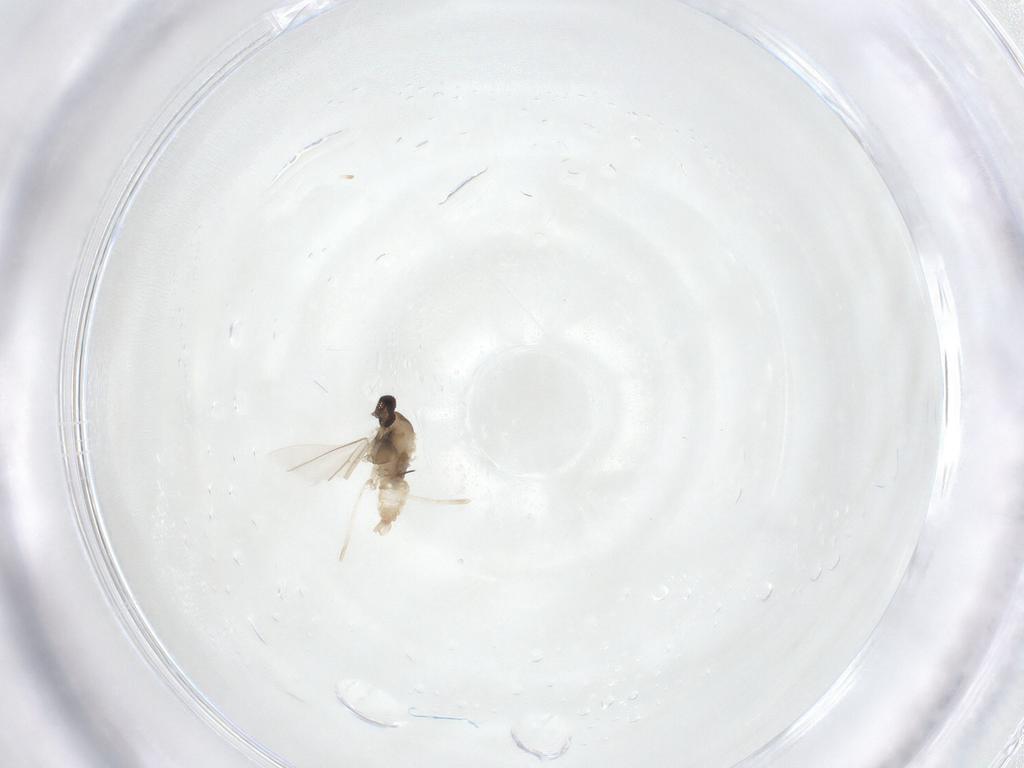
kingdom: Animalia
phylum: Arthropoda
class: Insecta
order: Diptera
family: Cecidomyiidae
